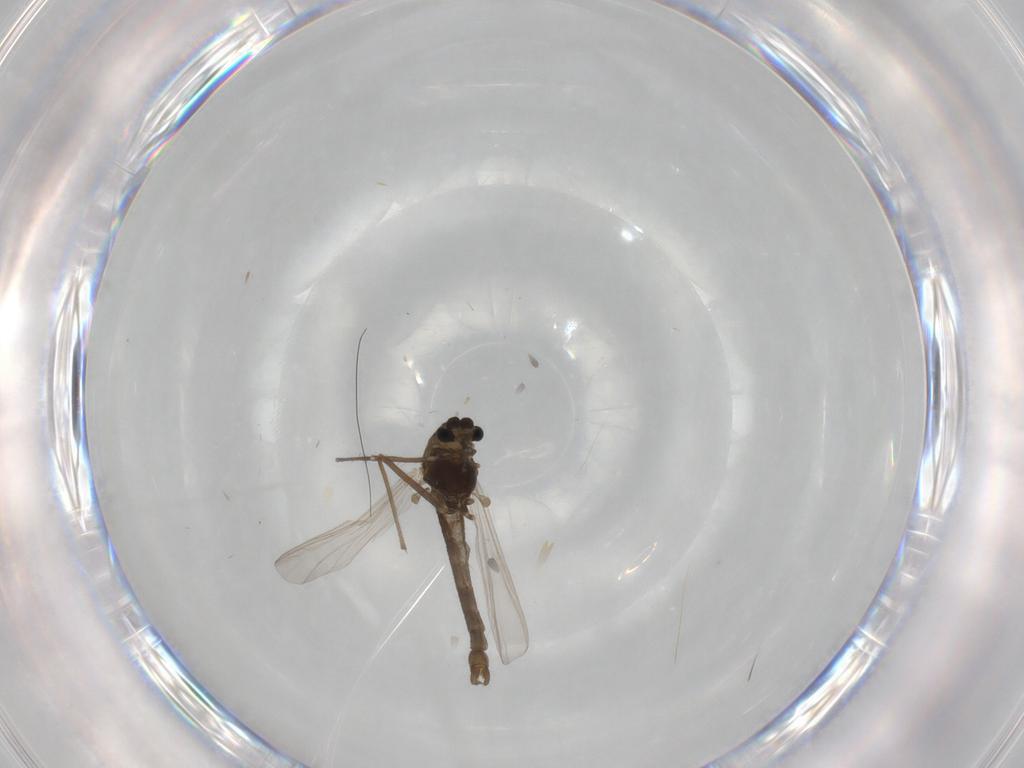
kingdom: Animalia
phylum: Arthropoda
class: Insecta
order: Diptera
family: Chironomidae
